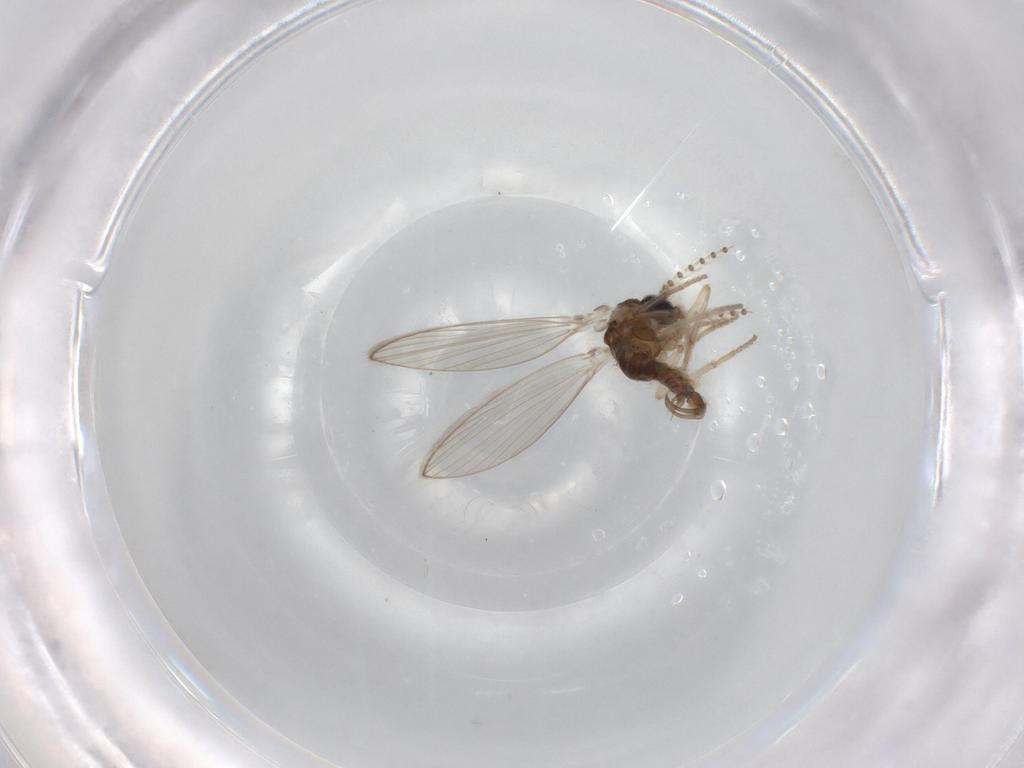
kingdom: Animalia
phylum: Arthropoda
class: Insecta
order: Diptera
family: Psychodidae
